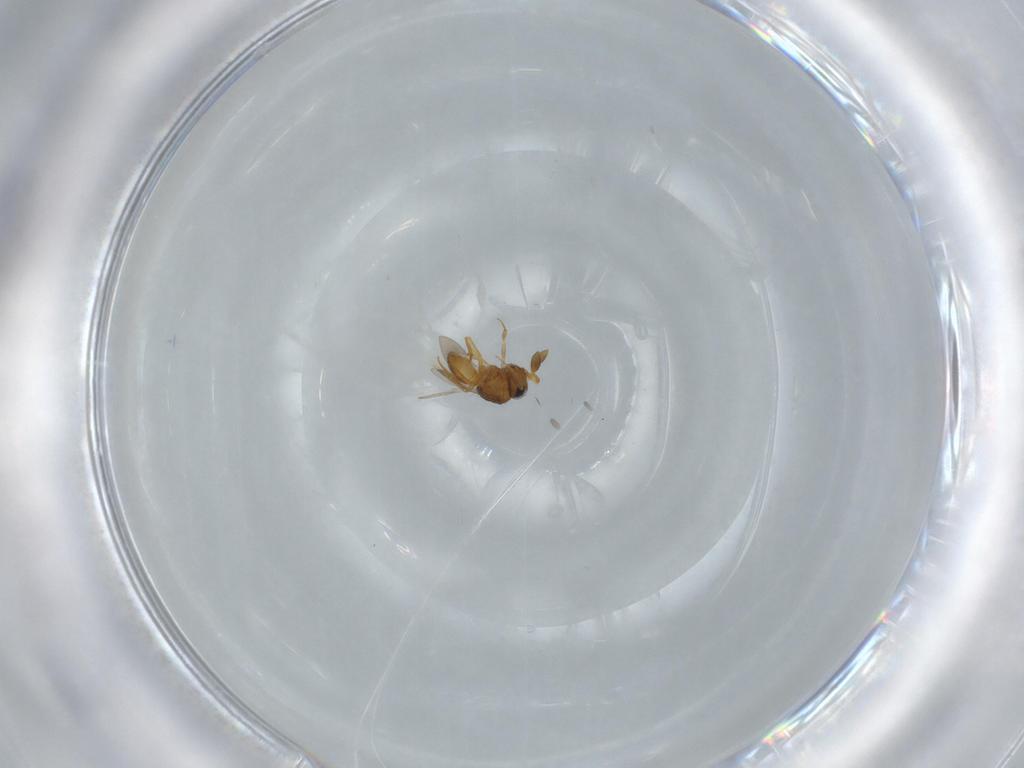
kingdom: Animalia
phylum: Arthropoda
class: Insecta
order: Hymenoptera
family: Scelionidae
